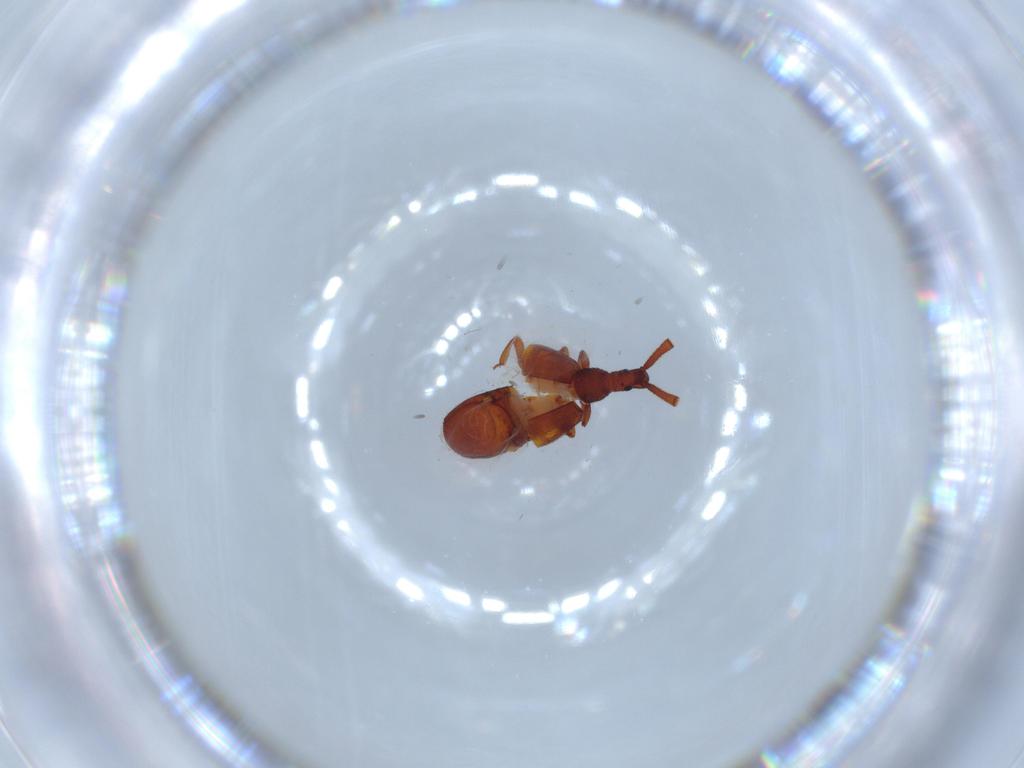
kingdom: Animalia
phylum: Arthropoda
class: Insecta
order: Coleoptera
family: Staphylinidae
